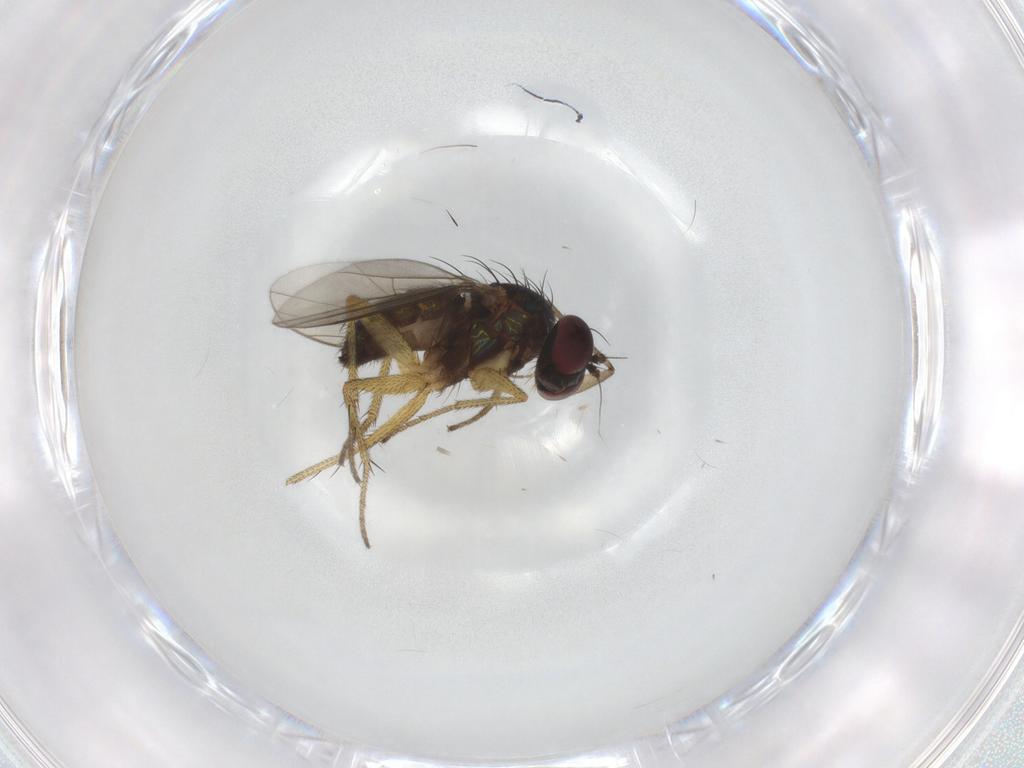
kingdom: Animalia
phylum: Arthropoda
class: Insecta
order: Diptera
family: Sciaridae
